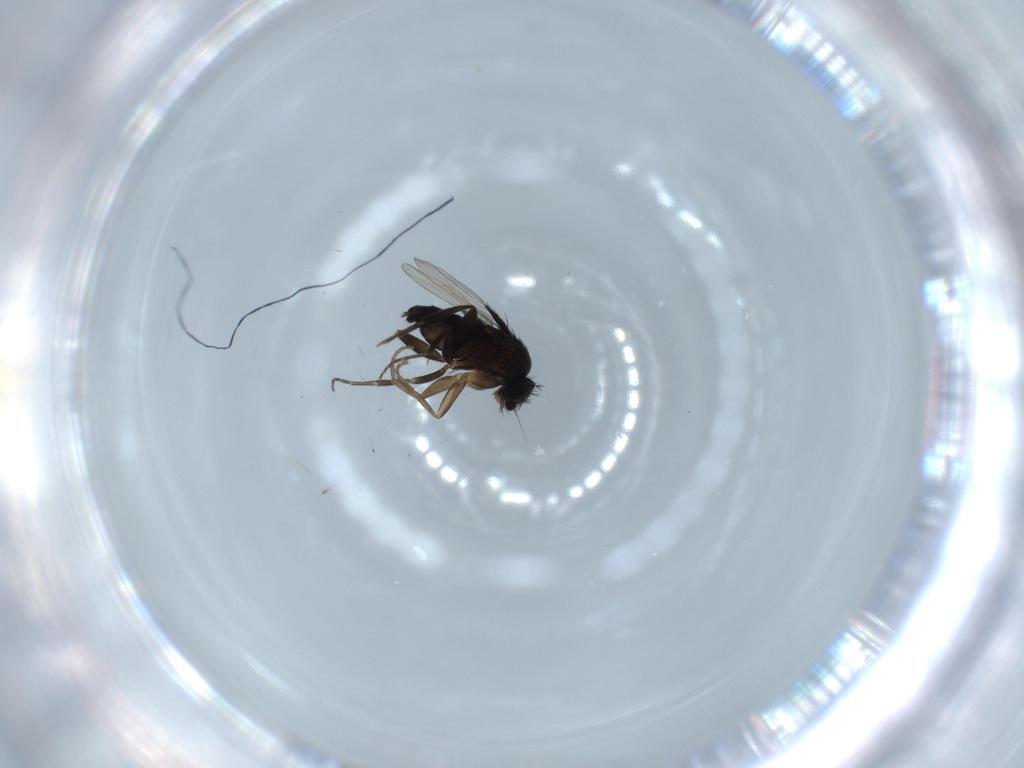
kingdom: Animalia
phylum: Arthropoda
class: Insecta
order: Diptera
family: Phoridae
